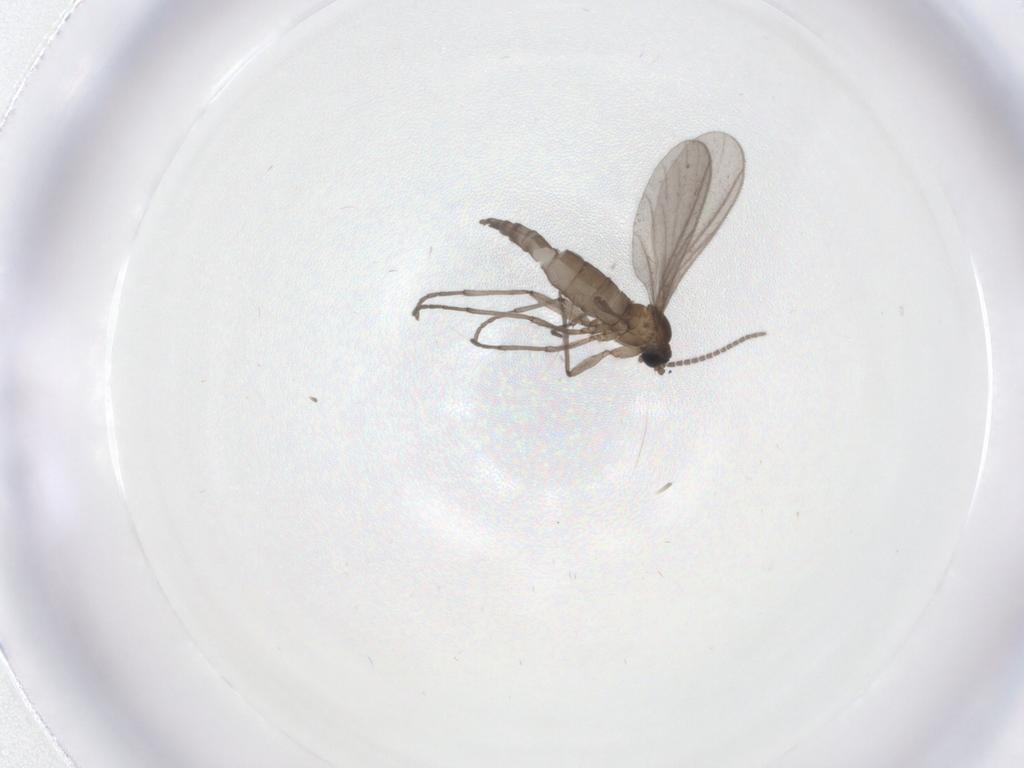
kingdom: Animalia
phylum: Arthropoda
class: Insecta
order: Diptera
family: Sciaridae
